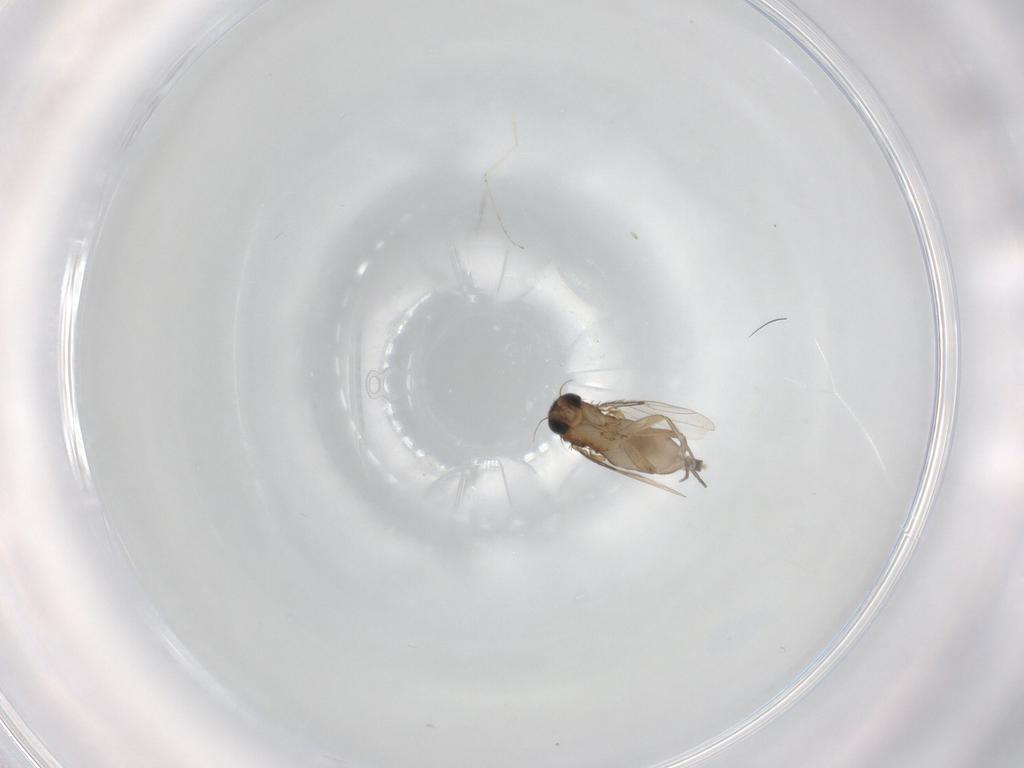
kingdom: Animalia
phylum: Arthropoda
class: Insecta
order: Diptera
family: Phoridae
